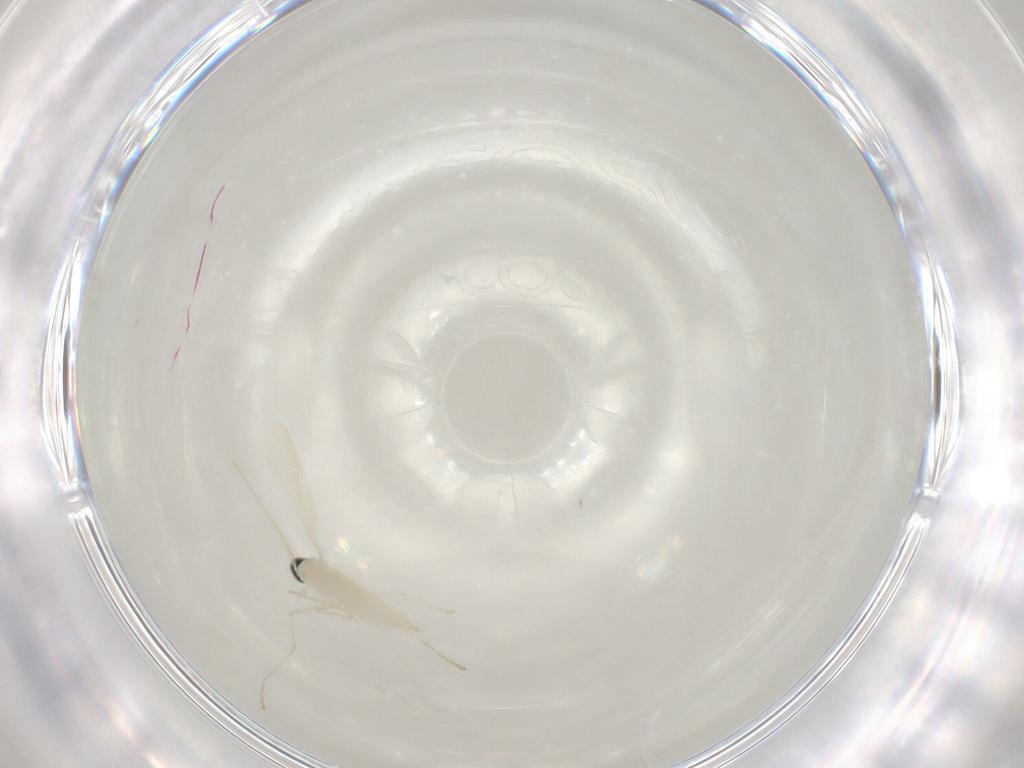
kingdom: Animalia
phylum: Arthropoda
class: Insecta
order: Diptera
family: Cecidomyiidae
